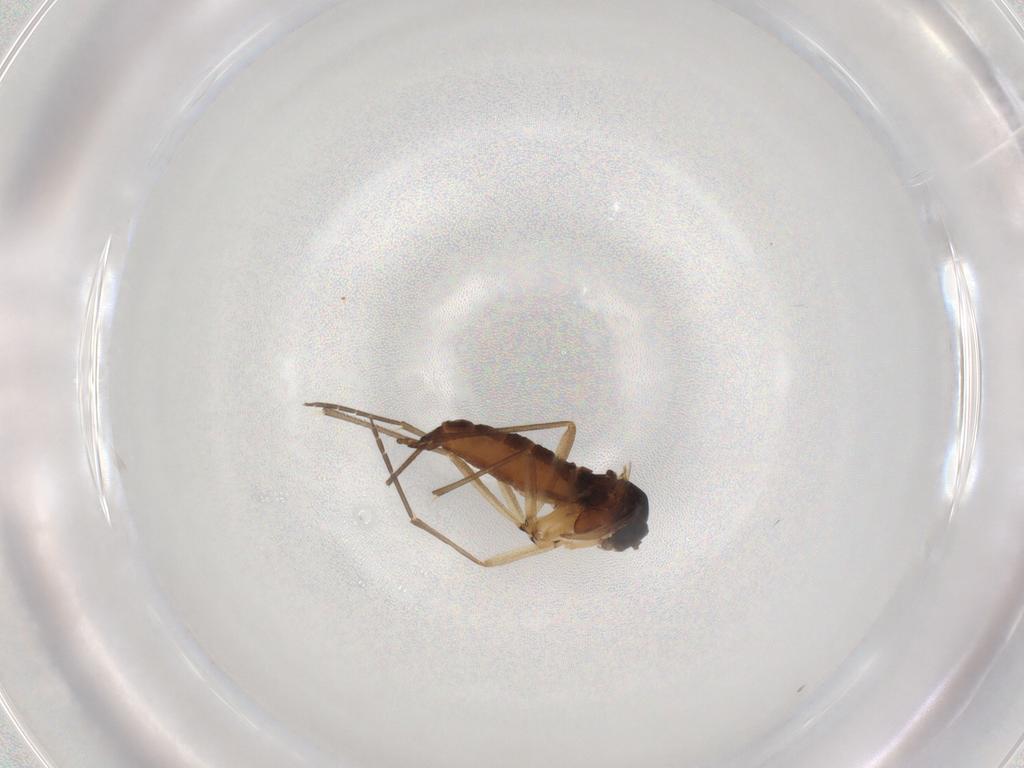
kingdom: Animalia
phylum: Arthropoda
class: Insecta
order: Diptera
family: Sciaridae
